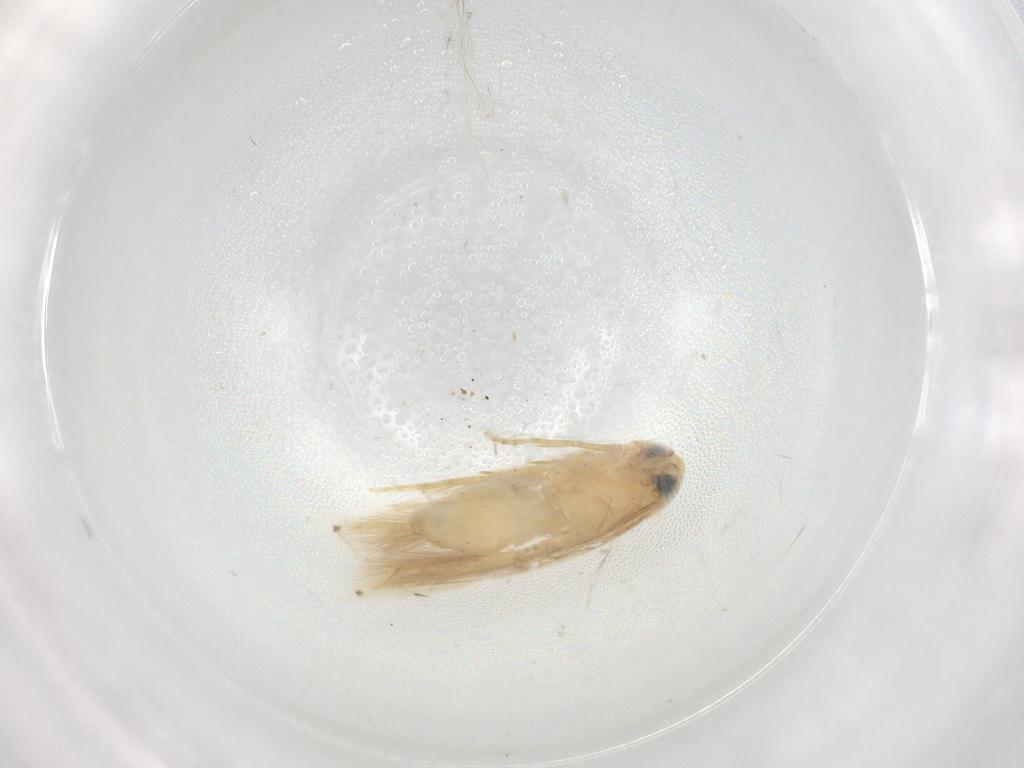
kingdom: Animalia
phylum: Arthropoda
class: Insecta
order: Lepidoptera
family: Opostegidae
